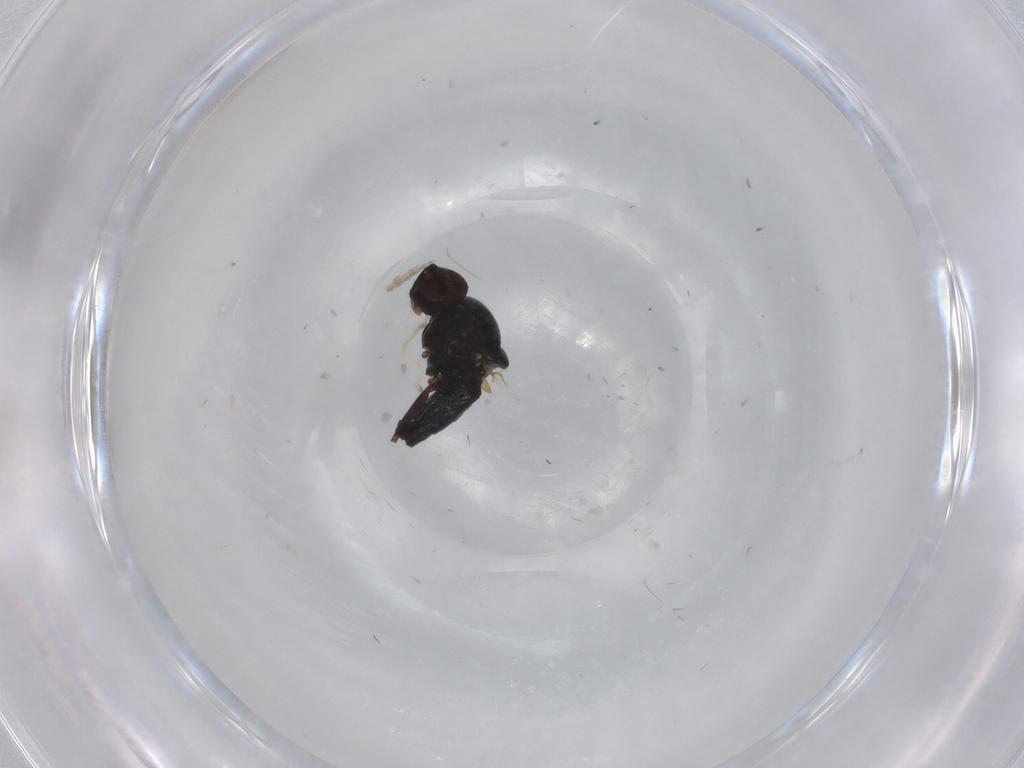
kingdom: Animalia
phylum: Arthropoda
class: Insecta
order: Diptera
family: Chloropidae
